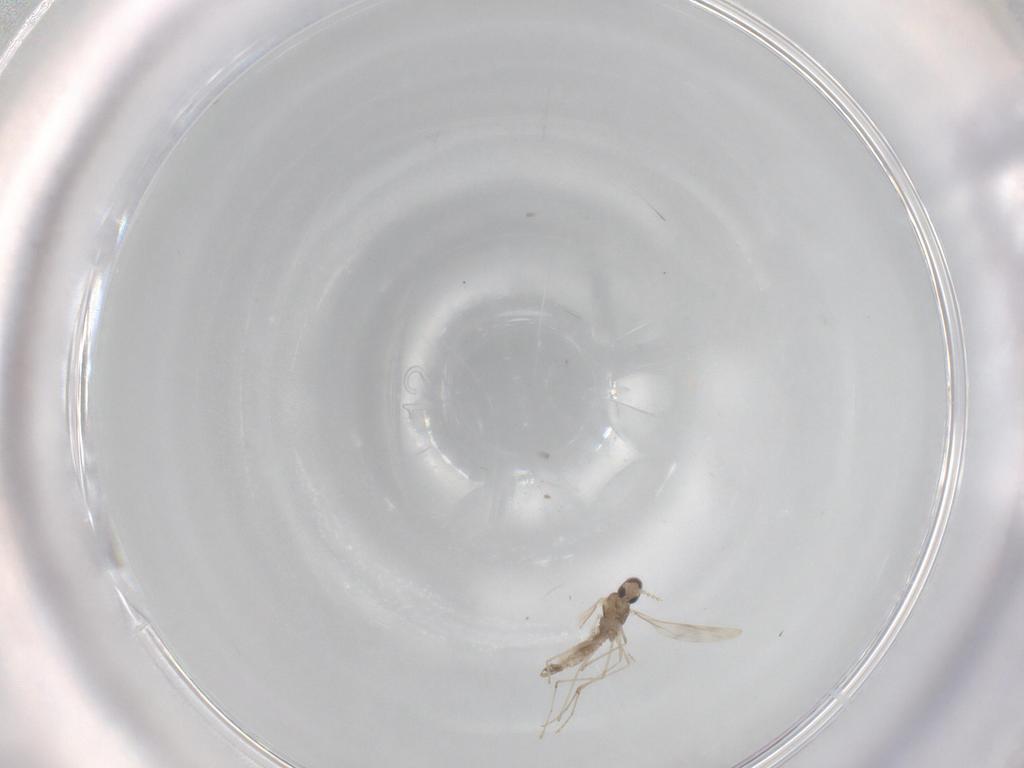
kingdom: Animalia
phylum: Arthropoda
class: Insecta
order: Diptera
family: Cecidomyiidae
